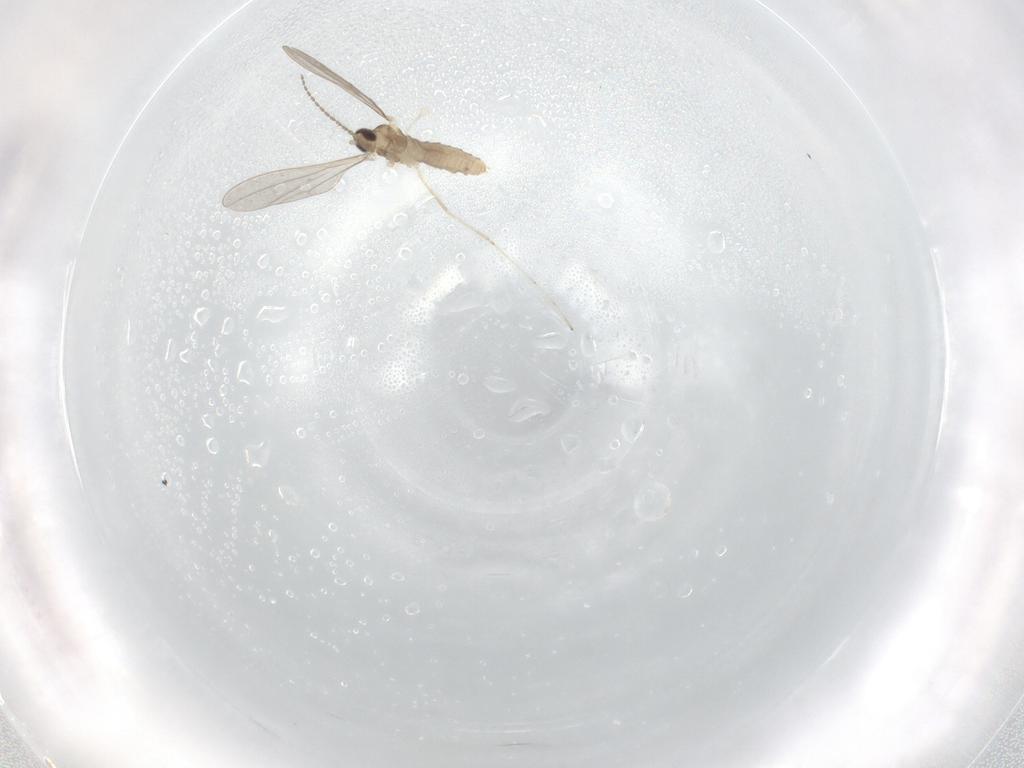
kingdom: Animalia
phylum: Arthropoda
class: Insecta
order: Diptera
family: Cecidomyiidae
